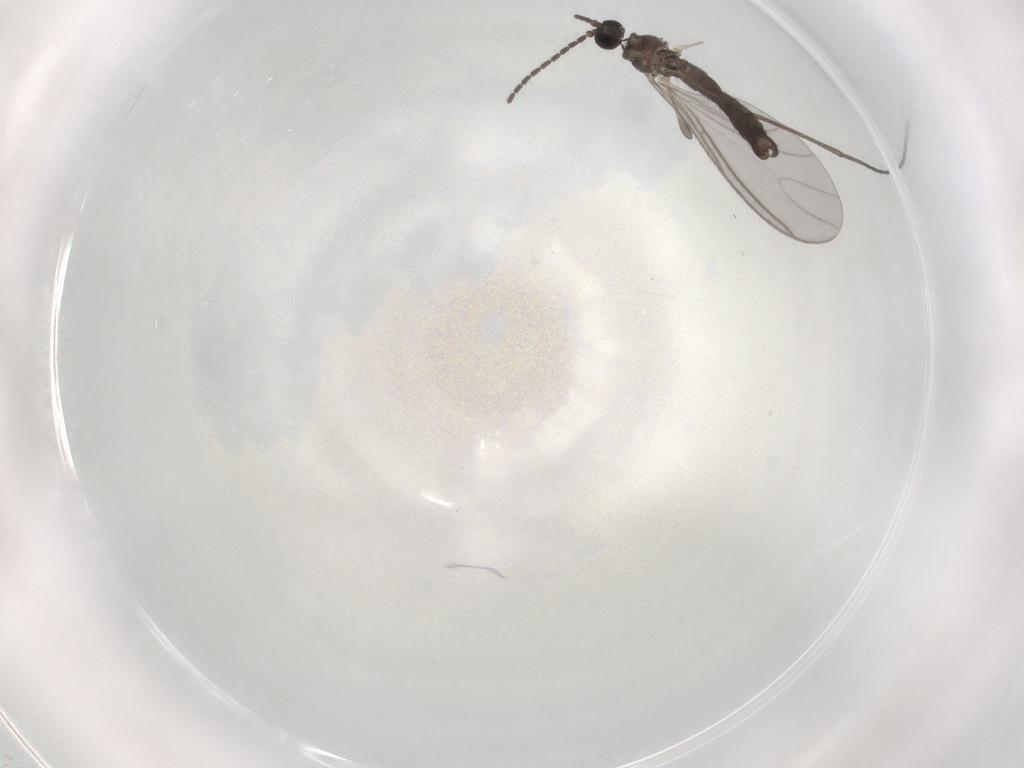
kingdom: Animalia
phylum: Arthropoda
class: Insecta
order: Diptera
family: Sciaridae
